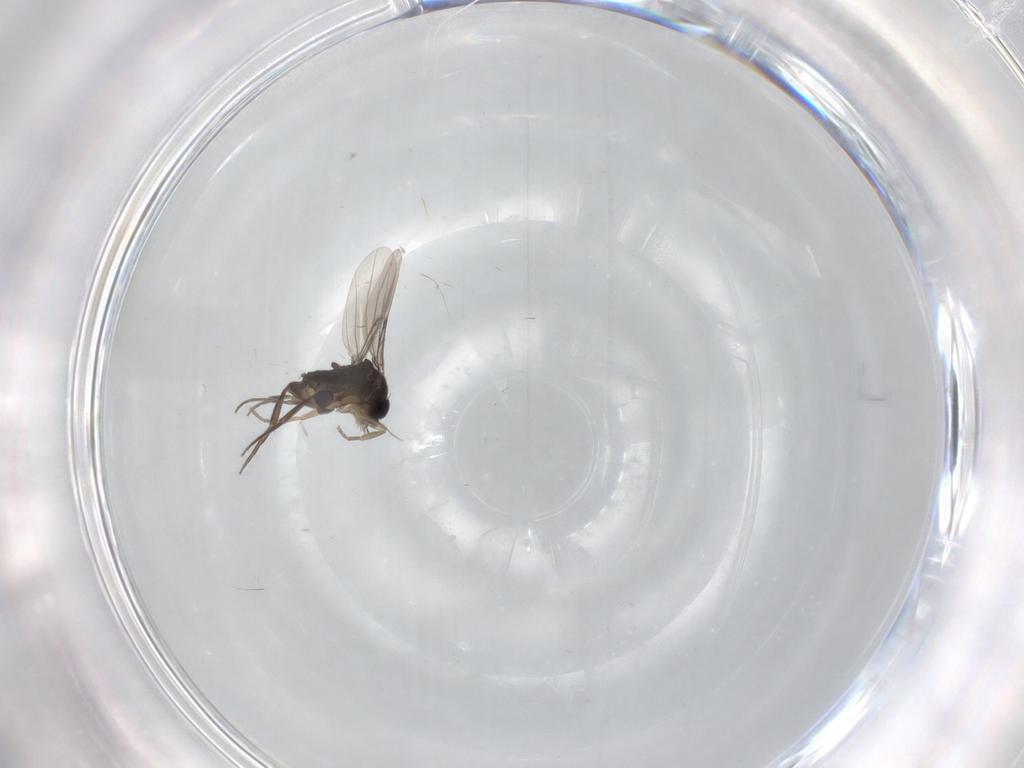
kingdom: Animalia
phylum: Arthropoda
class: Insecta
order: Diptera
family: Phoridae
